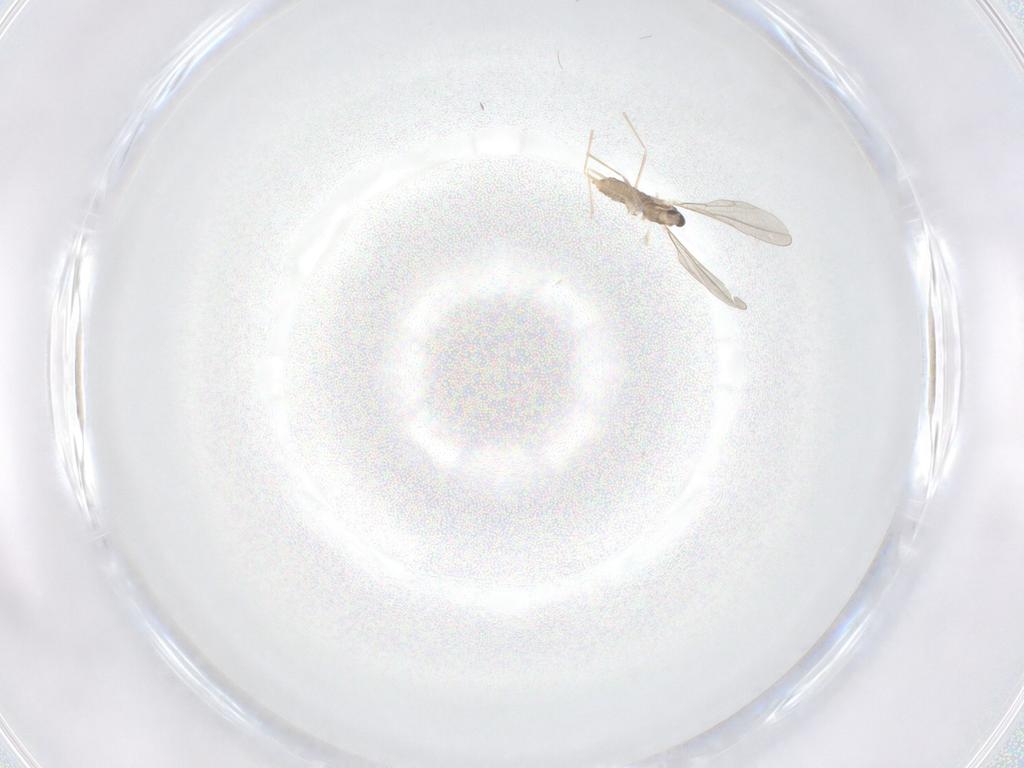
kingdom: Animalia
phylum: Arthropoda
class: Insecta
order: Diptera
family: Cecidomyiidae
